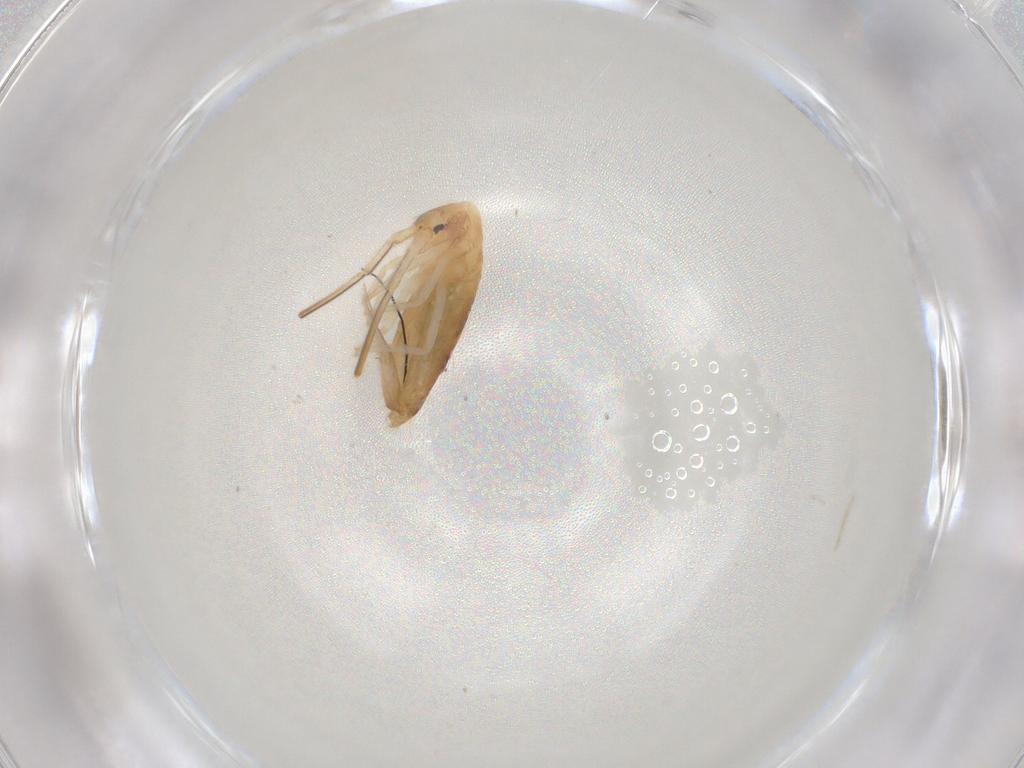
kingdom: Animalia
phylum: Arthropoda
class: Collembola
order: Entomobryomorpha
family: Entomobryidae
